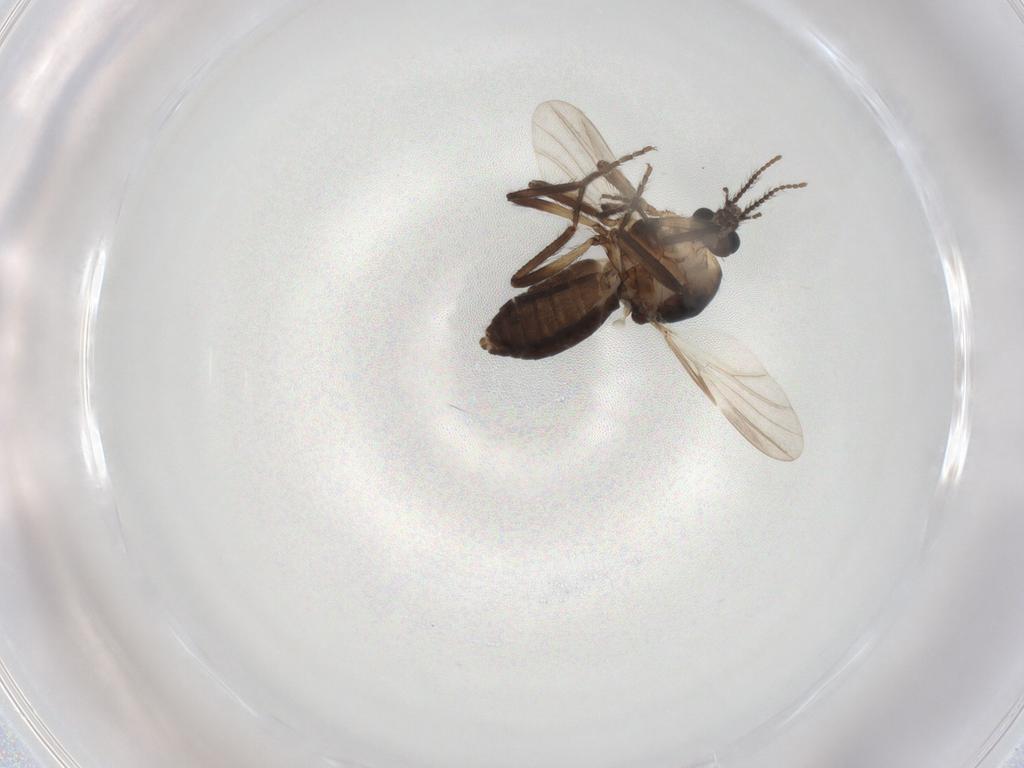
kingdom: Animalia
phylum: Arthropoda
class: Insecta
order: Diptera
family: Ceratopogonidae
